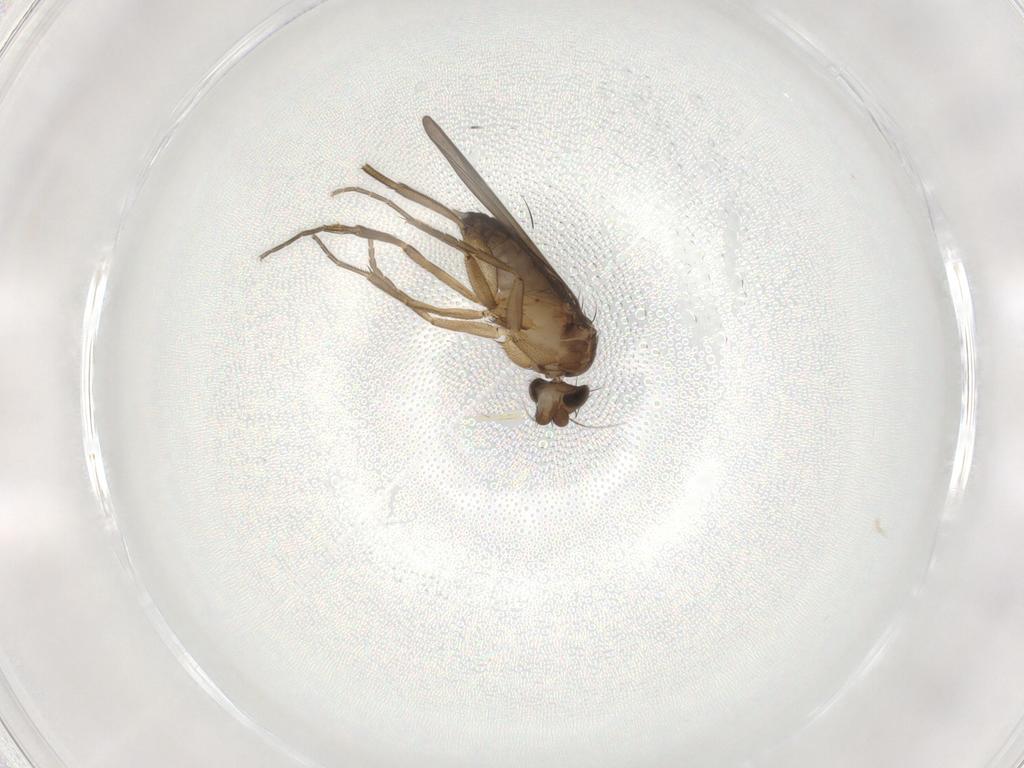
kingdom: Animalia
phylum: Arthropoda
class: Insecta
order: Diptera
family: Phoridae
